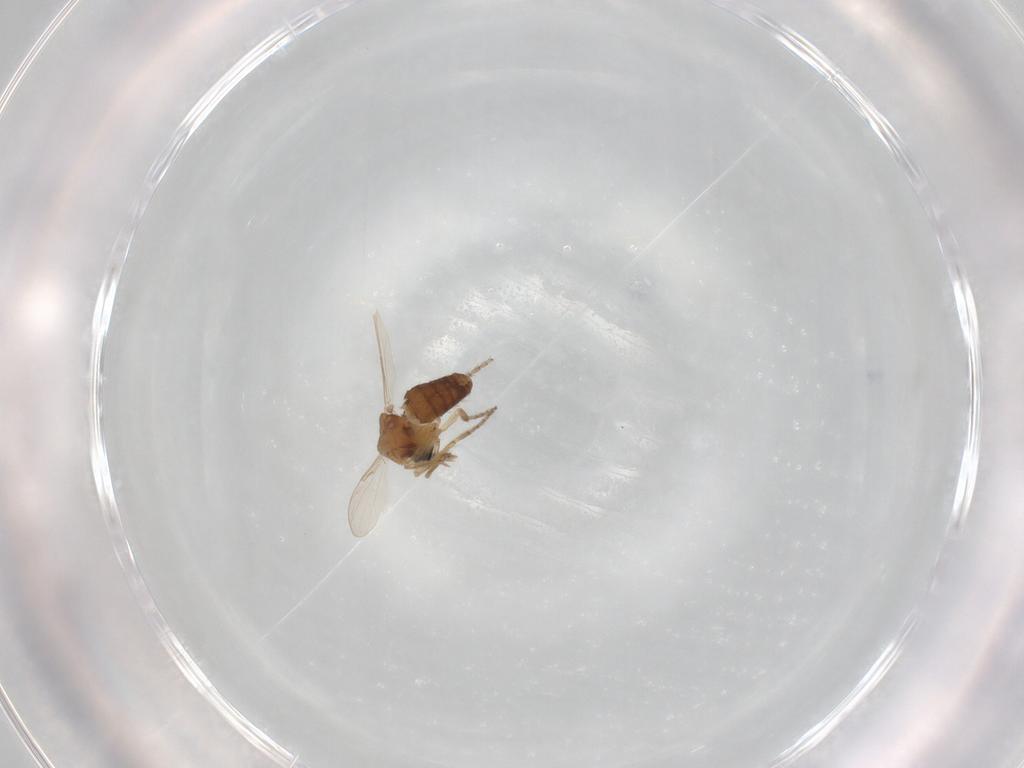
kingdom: Animalia
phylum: Arthropoda
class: Insecta
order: Diptera
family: Ceratopogonidae
